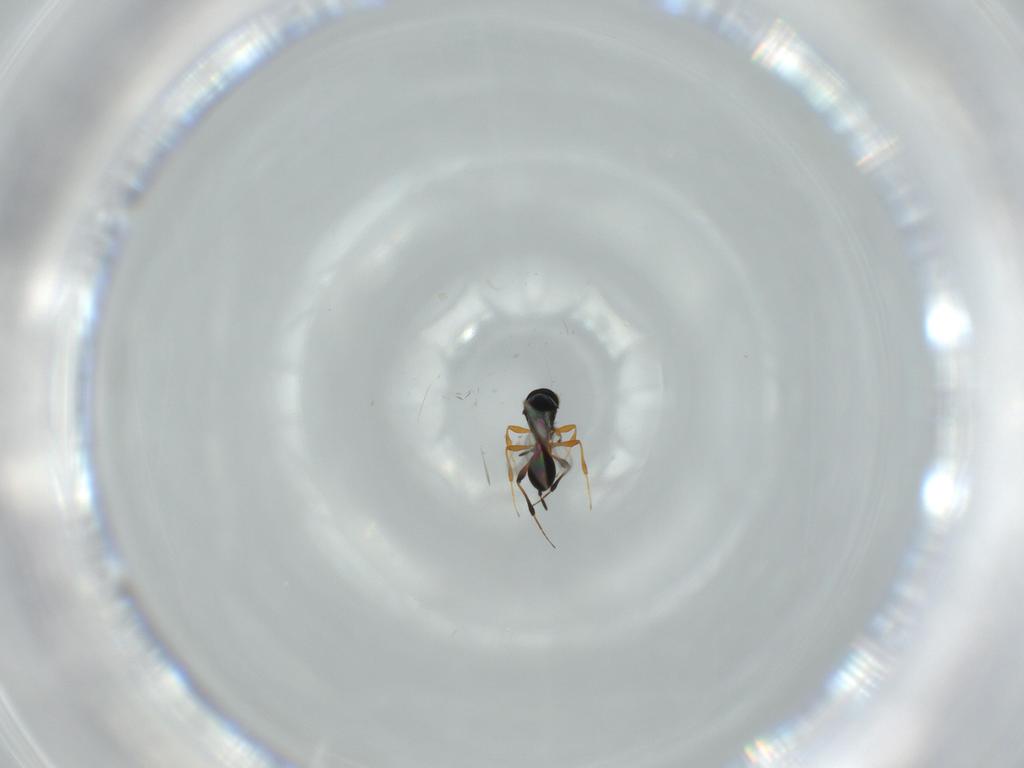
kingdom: Animalia
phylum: Arthropoda
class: Insecta
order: Hymenoptera
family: Platygastridae
